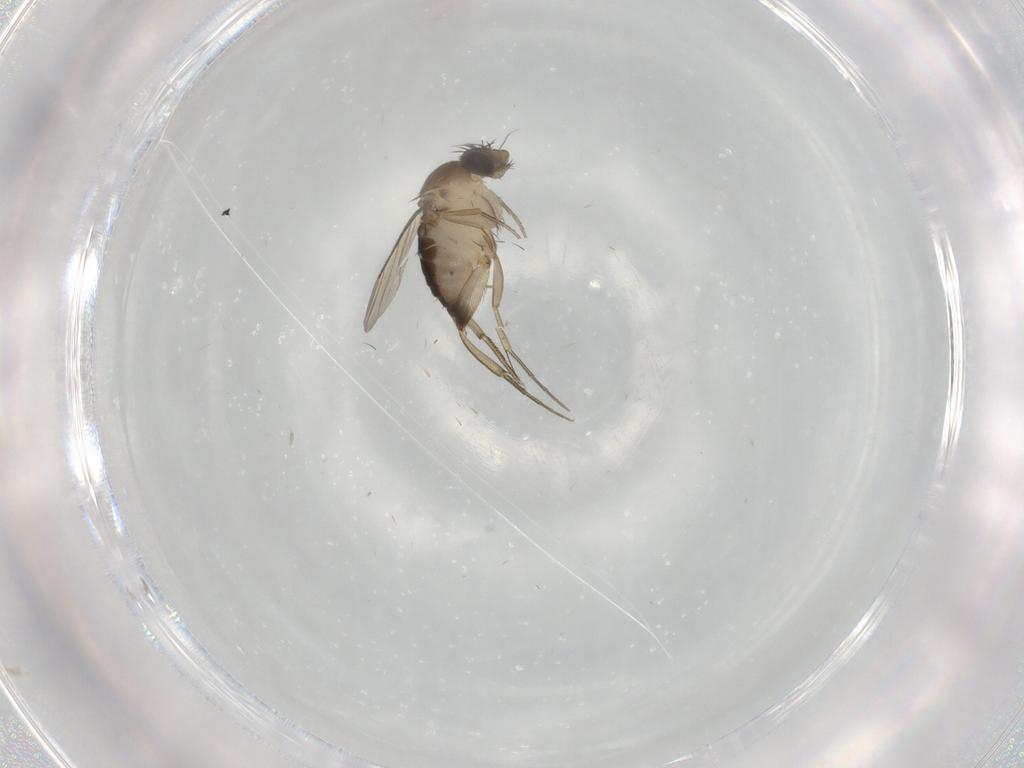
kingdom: Animalia
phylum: Arthropoda
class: Insecta
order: Diptera
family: Phoridae
